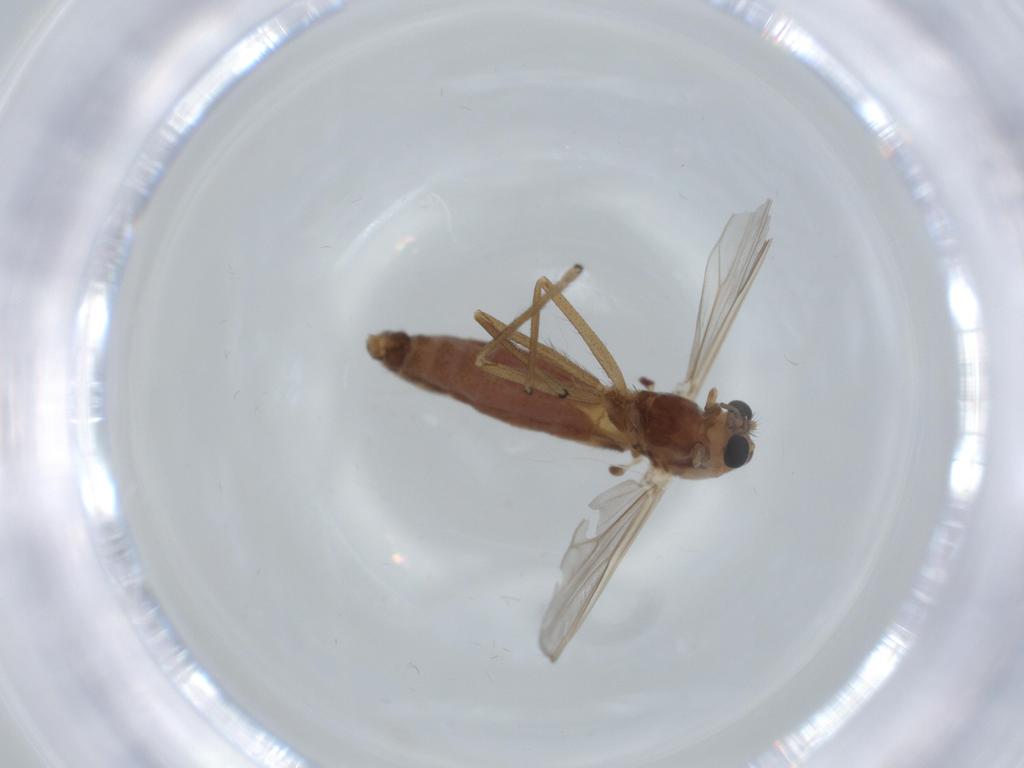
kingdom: Animalia
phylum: Arthropoda
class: Insecta
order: Diptera
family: Chironomidae
